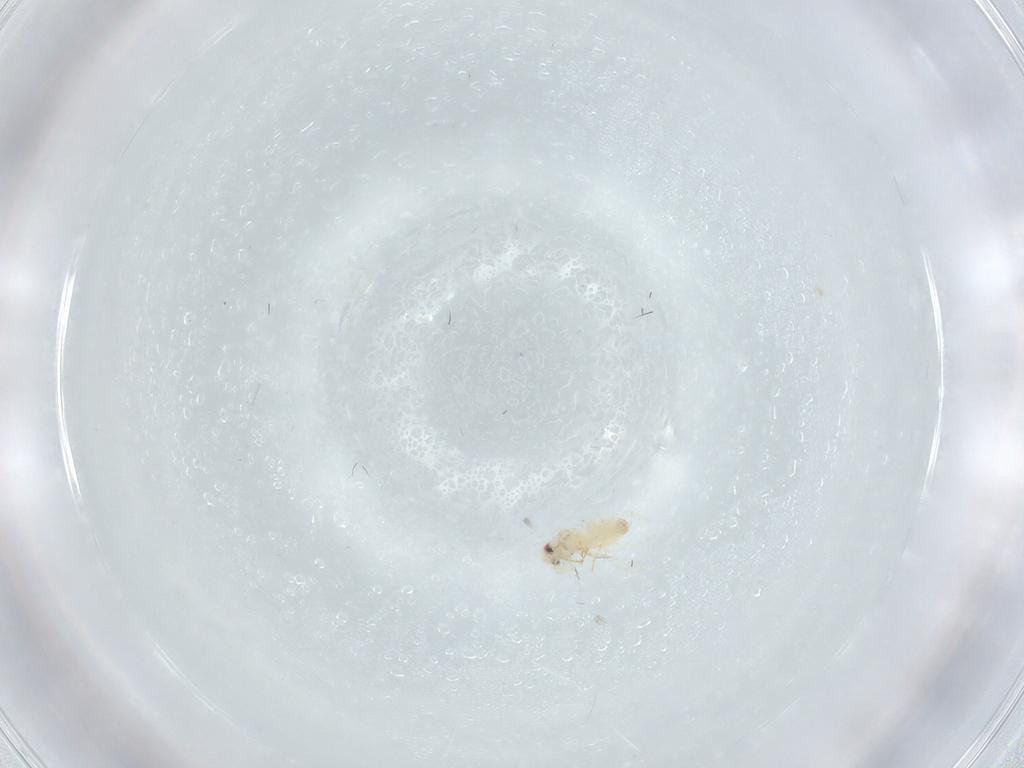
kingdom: Animalia
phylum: Arthropoda
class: Insecta
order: Hemiptera
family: Aleyrodidae
